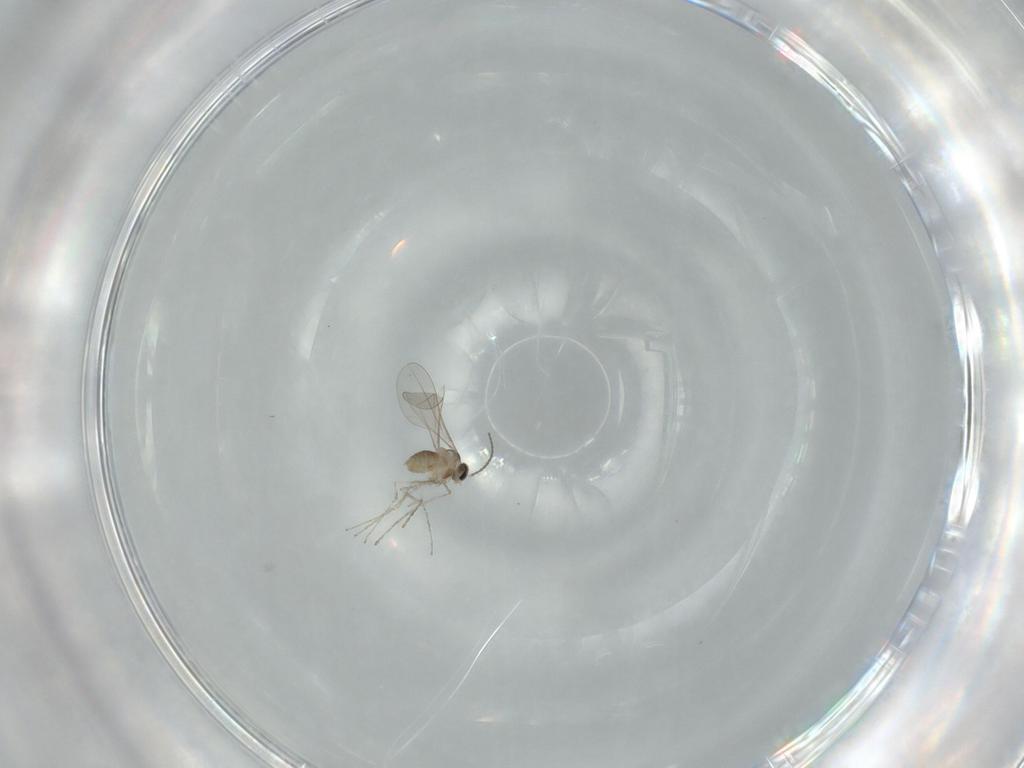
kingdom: Animalia
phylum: Arthropoda
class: Insecta
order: Diptera
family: Cecidomyiidae
